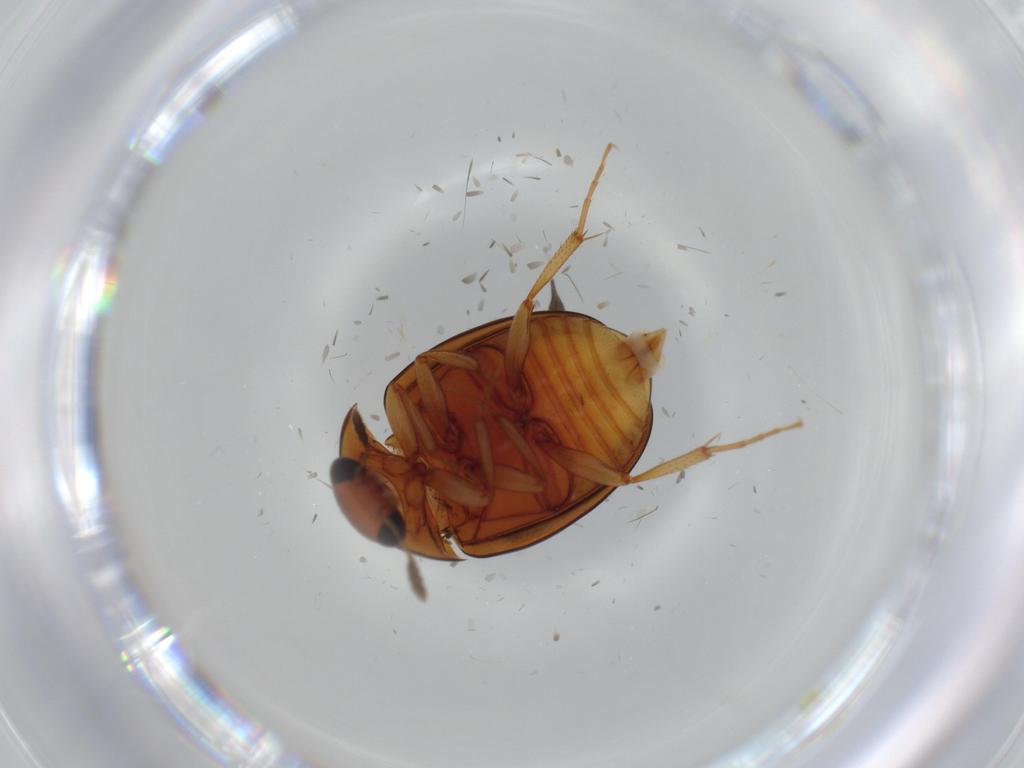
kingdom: Animalia
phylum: Arthropoda
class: Insecta
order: Coleoptera
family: Nitidulidae
